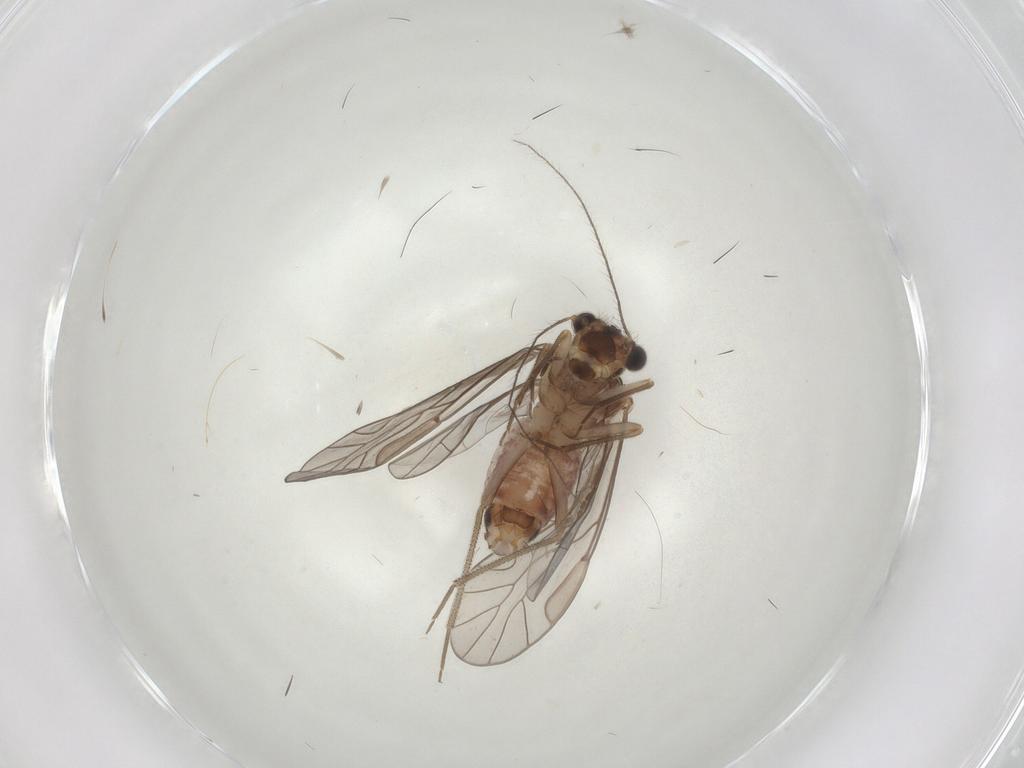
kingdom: Animalia
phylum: Arthropoda
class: Insecta
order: Psocodea
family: Lachesillidae
